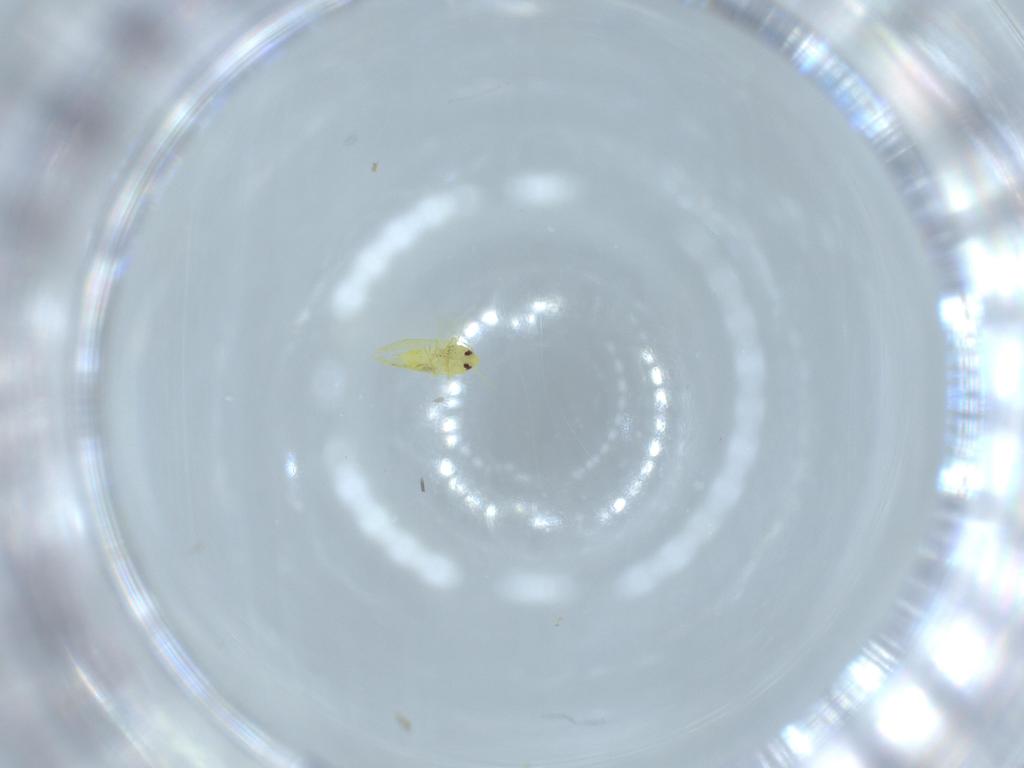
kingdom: Animalia
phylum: Arthropoda
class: Insecta
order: Hemiptera
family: Aleyrodidae
